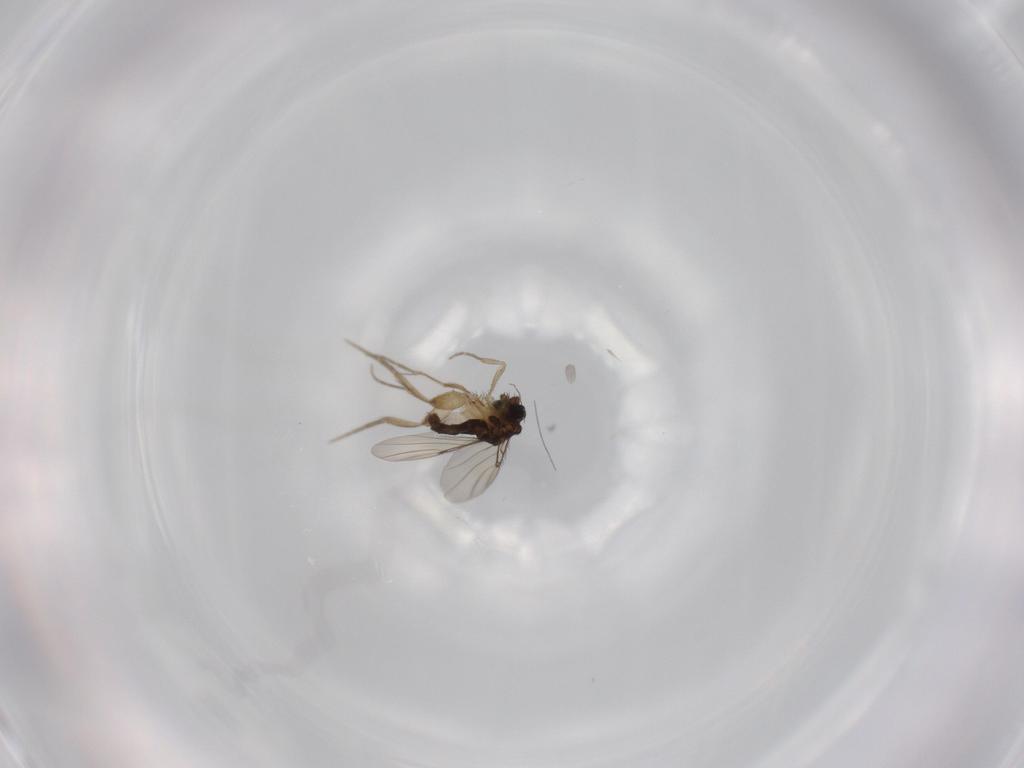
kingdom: Animalia
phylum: Arthropoda
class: Insecta
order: Diptera
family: Phoridae
